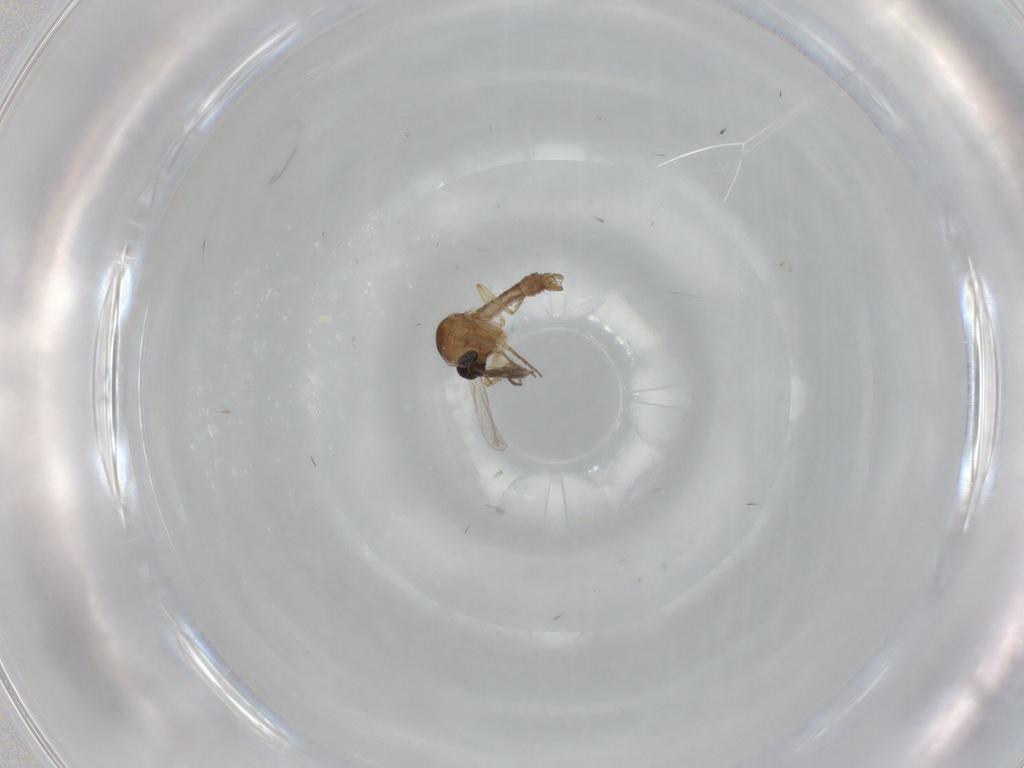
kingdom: Animalia
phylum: Arthropoda
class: Insecta
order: Diptera
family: Ceratopogonidae
